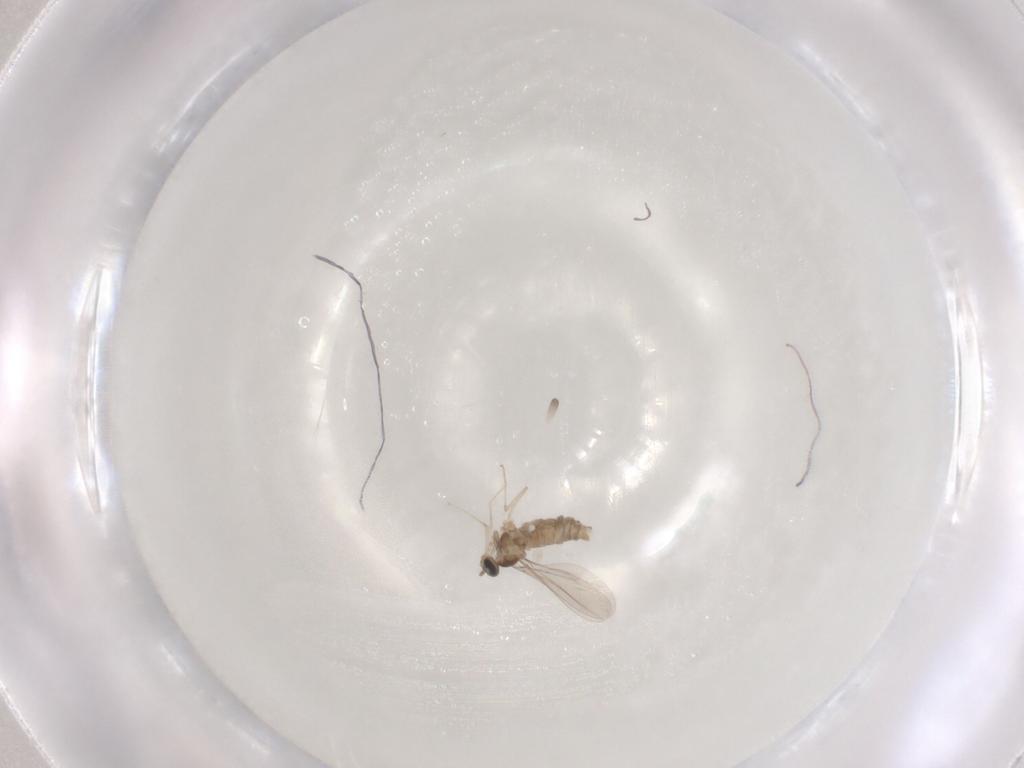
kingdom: Animalia
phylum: Arthropoda
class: Insecta
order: Diptera
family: Cecidomyiidae
